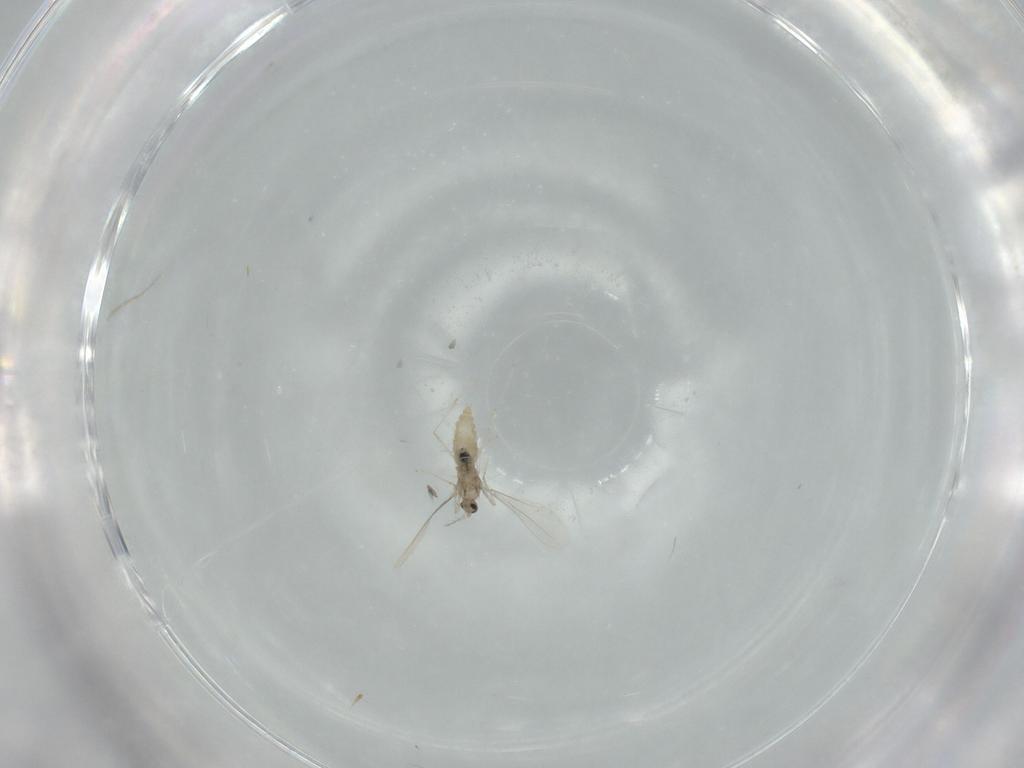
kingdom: Animalia
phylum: Arthropoda
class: Insecta
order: Diptera
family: Cecidomyiidae
